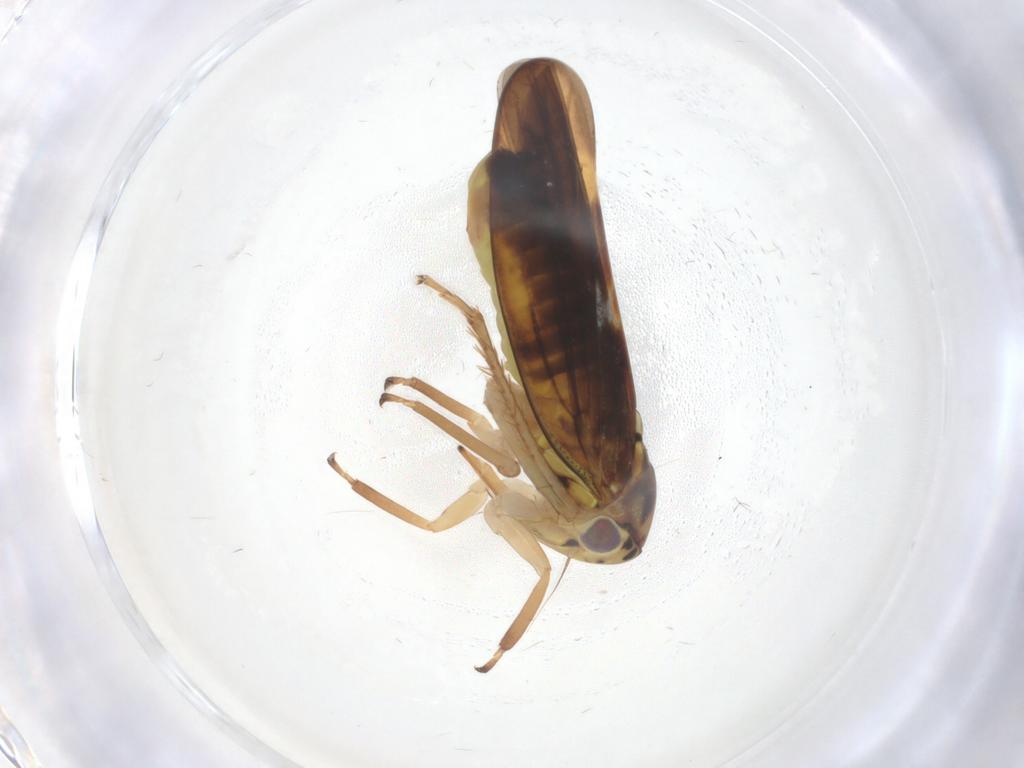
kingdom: Animalia
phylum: Arthropoda
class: Insecta
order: Hemiptera
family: Cicadellidae
